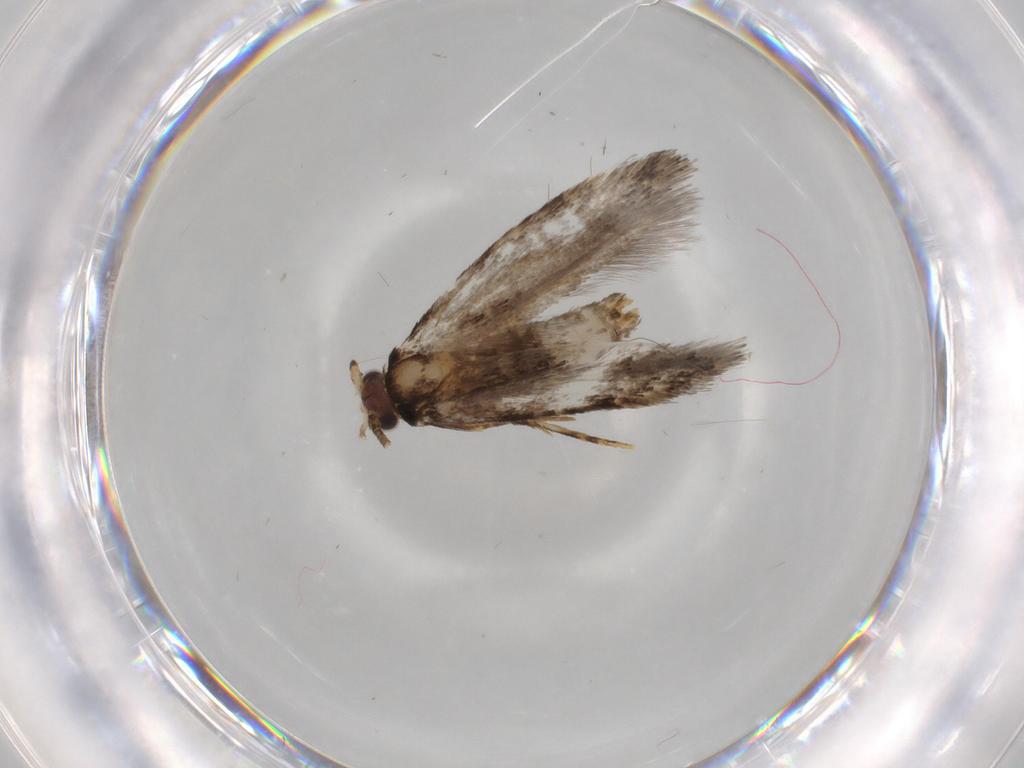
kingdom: Animalia
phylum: Arthropoda
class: Insecta
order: Lepidoptera
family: Tineidae
